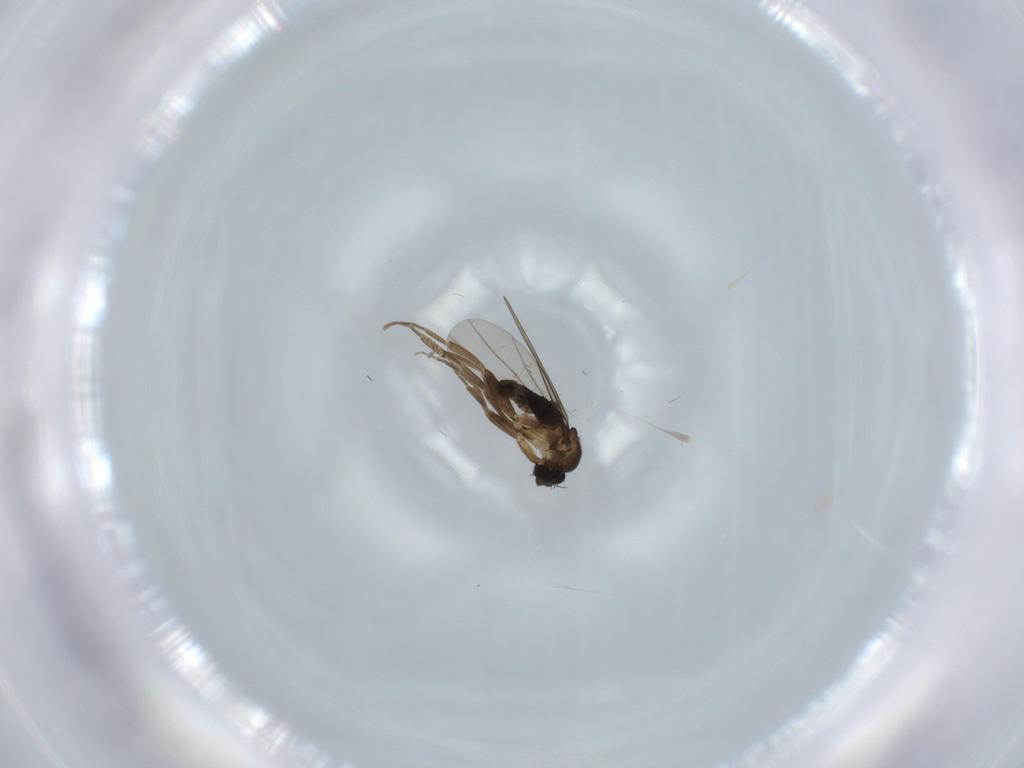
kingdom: Animalia
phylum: Arthropoda
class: Insecta
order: Diptera
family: Phoridae
